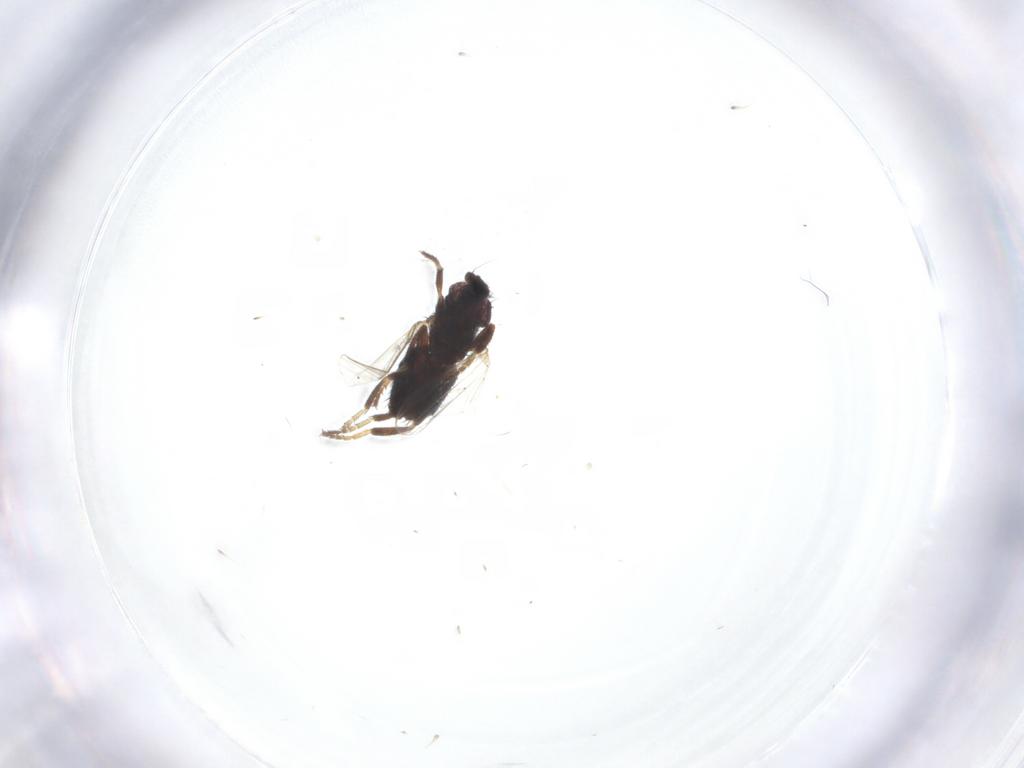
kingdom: Animalia
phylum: Arthropoda
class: Insecta
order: Diptera
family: Milichiidae
